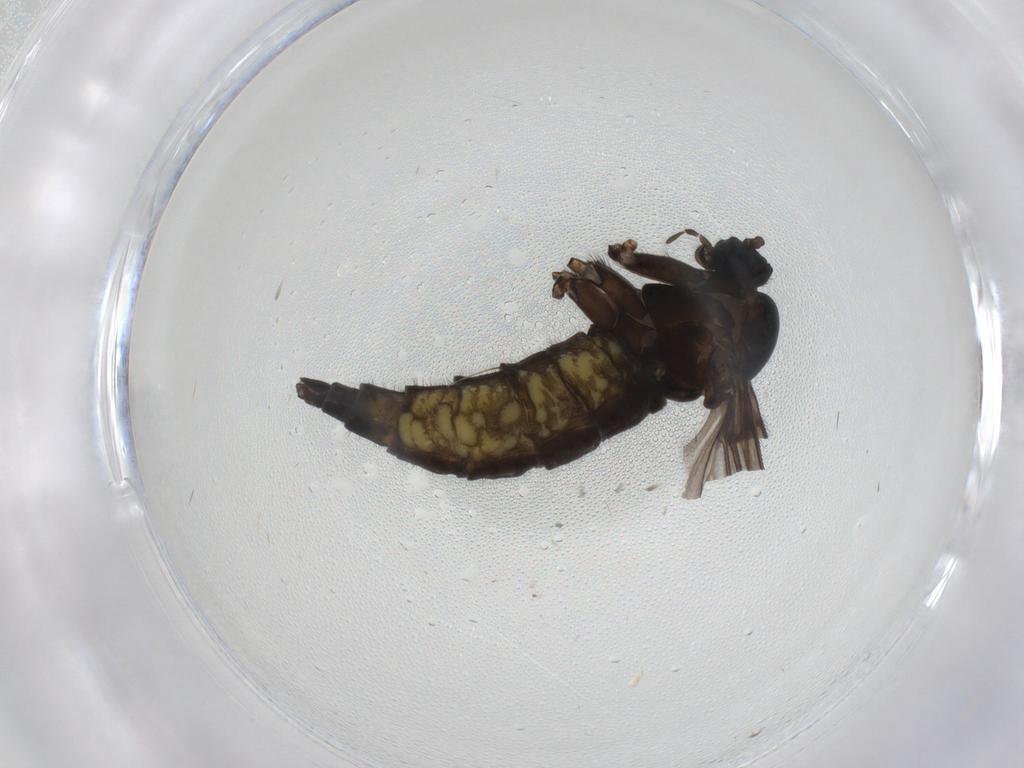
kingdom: Animalia
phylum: Arthropoda
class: Insecta
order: Diptera
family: Sciaridae
